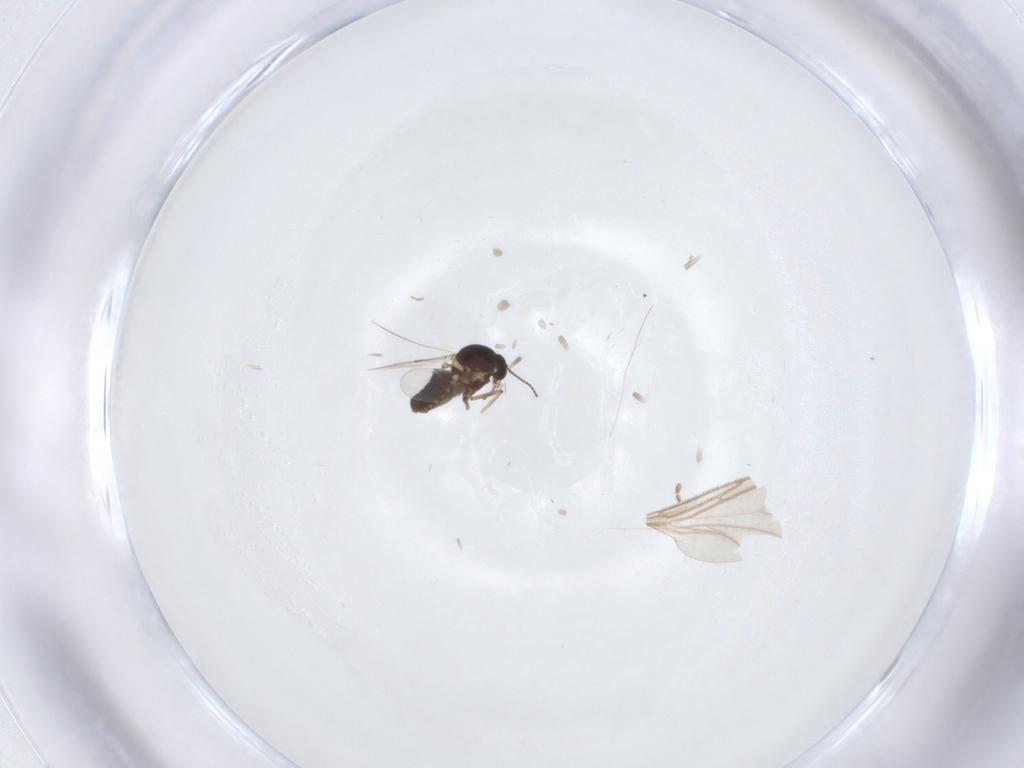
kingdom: Animalia
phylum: Arthropoda
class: Insecta
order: Diptera
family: Ceratopogonidae
